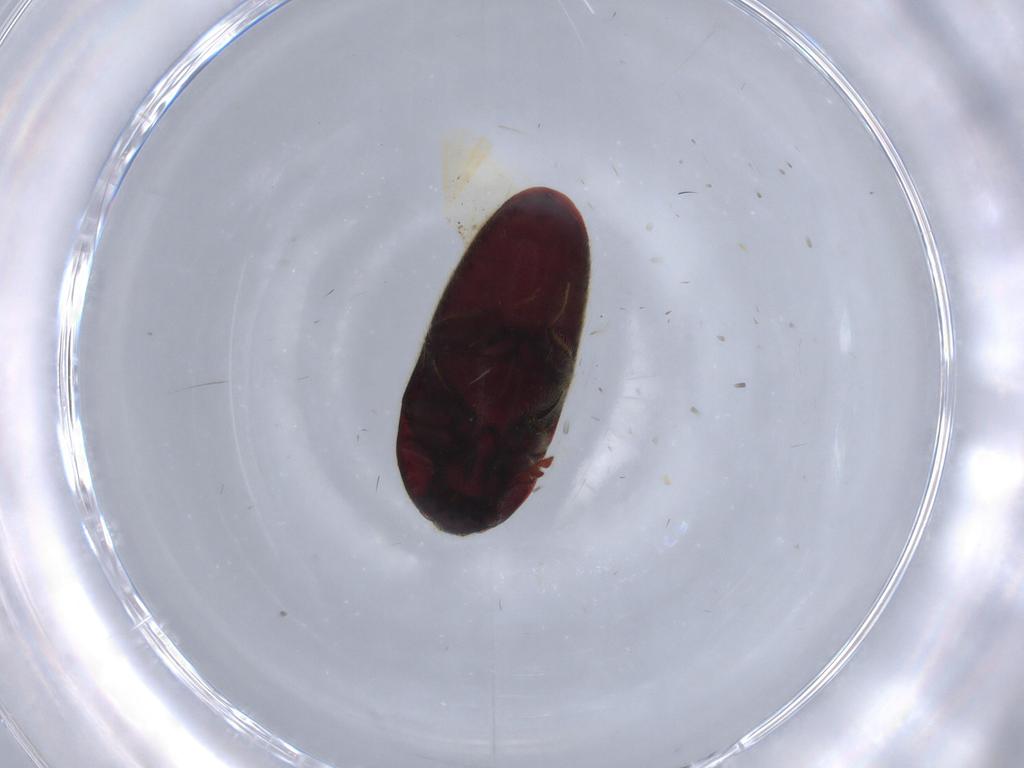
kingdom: Animalia
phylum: Arthropoda
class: Insecta
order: Coleoptera
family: Throscidae
